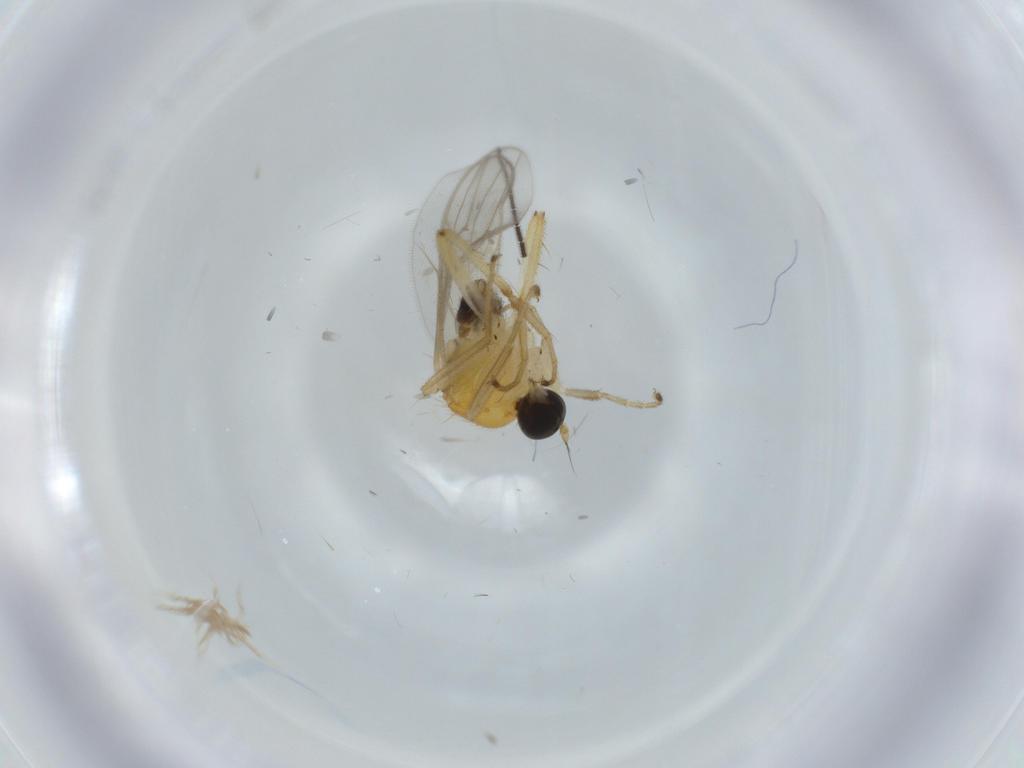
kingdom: Animalia
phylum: Arthropoda
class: Insecta
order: Diptera
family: Hybotidae
